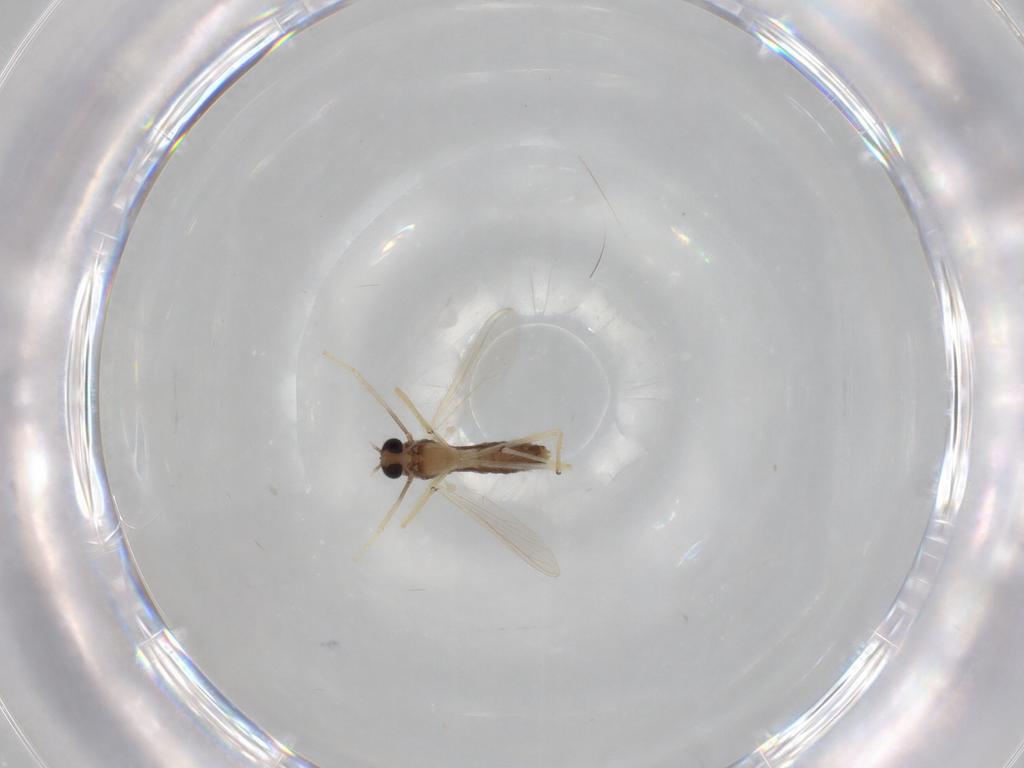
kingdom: Animalia
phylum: Arthropoda
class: Insecta
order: Diptera
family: Chironomidae
